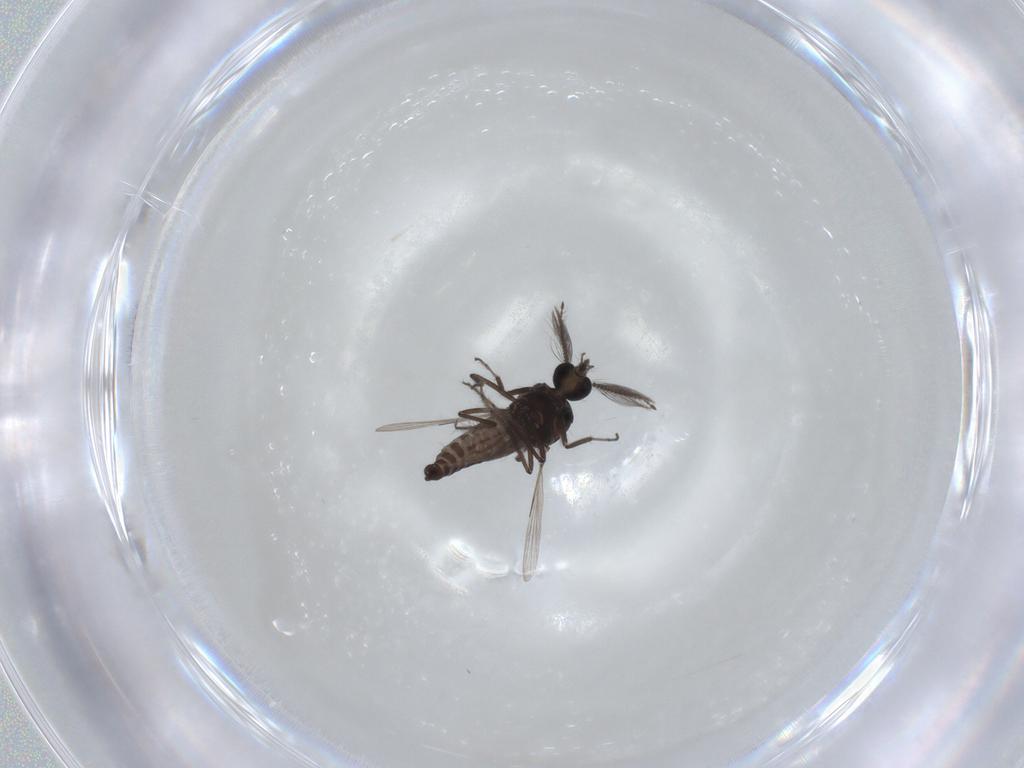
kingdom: Animalia
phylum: Arthropoda
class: Insecta
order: Diptera
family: Ceratopogonidae
